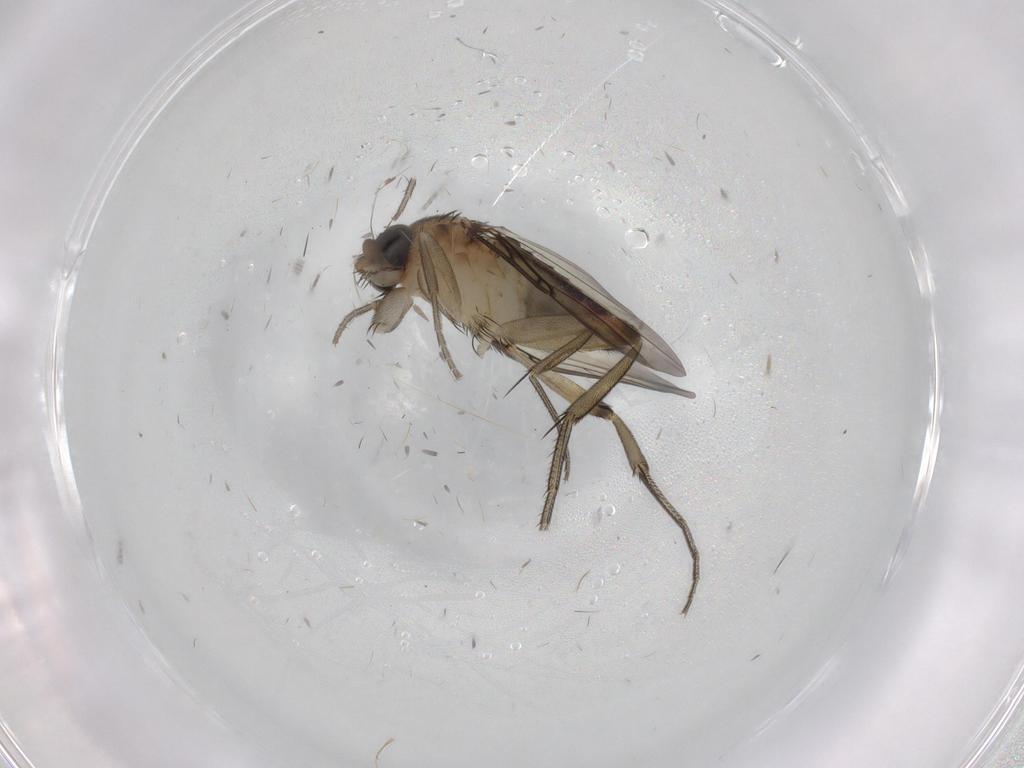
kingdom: Animalia
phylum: Arthropoda
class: Insecta
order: Diptera
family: Phoridae
